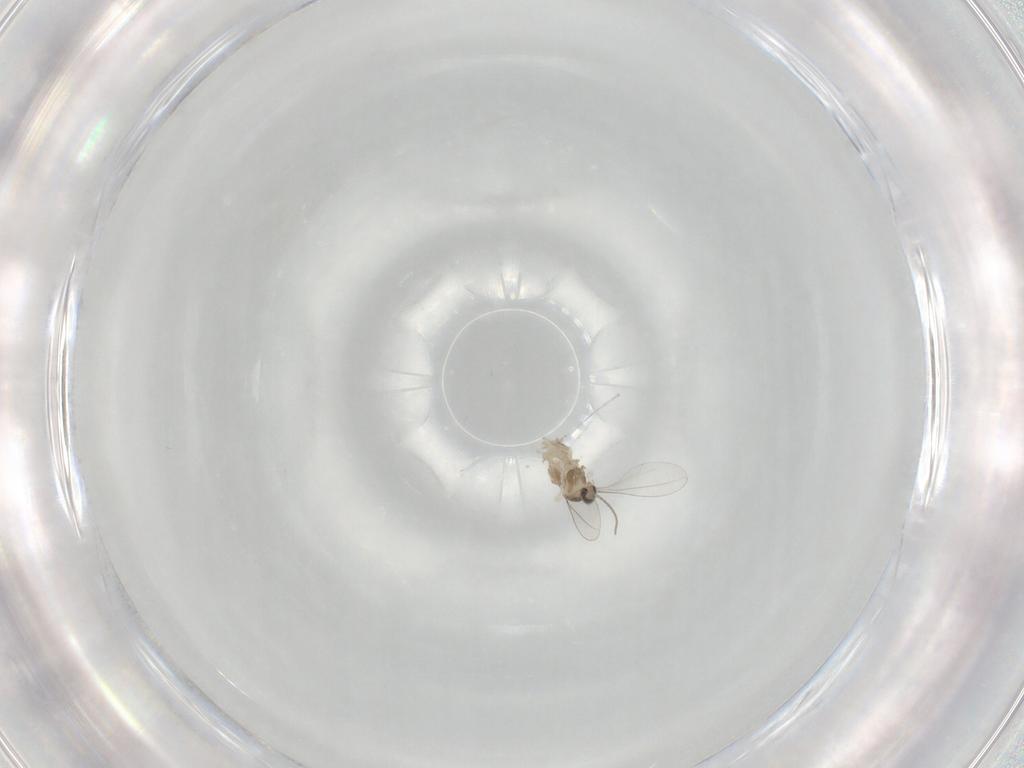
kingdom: Animalia
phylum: Arthropoda
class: Insecta
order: Diptera
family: Cecidomyiidae
